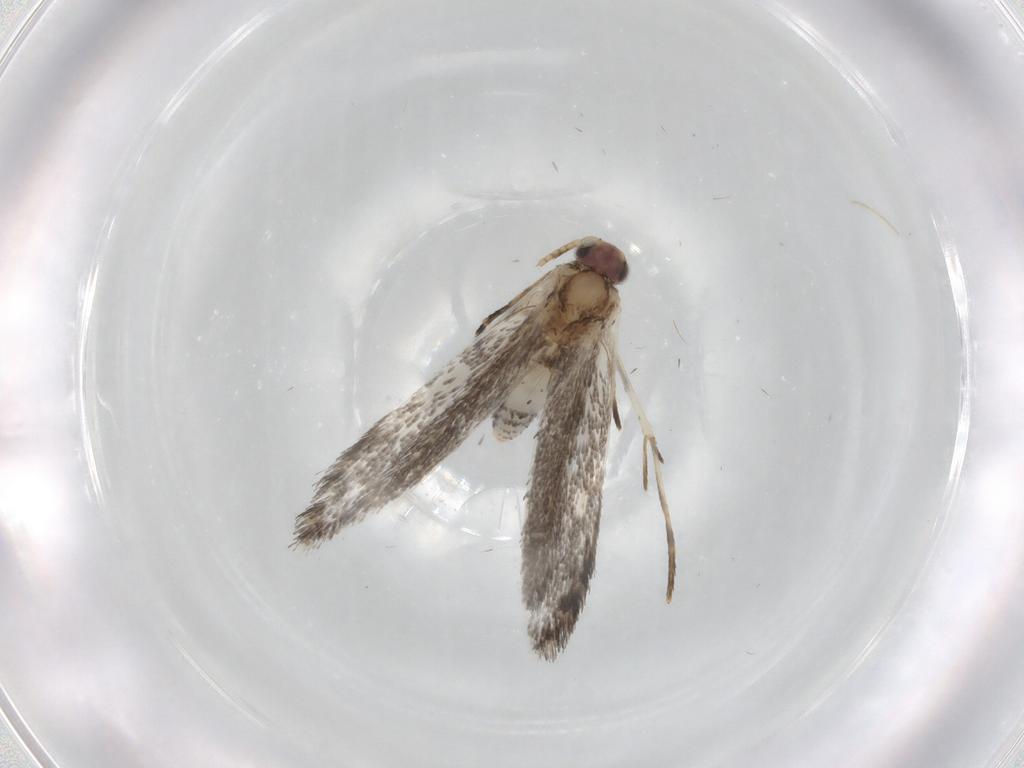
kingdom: Animalia
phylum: Arthropoda
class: Insecta
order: Lepidoptera
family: Tineidae
